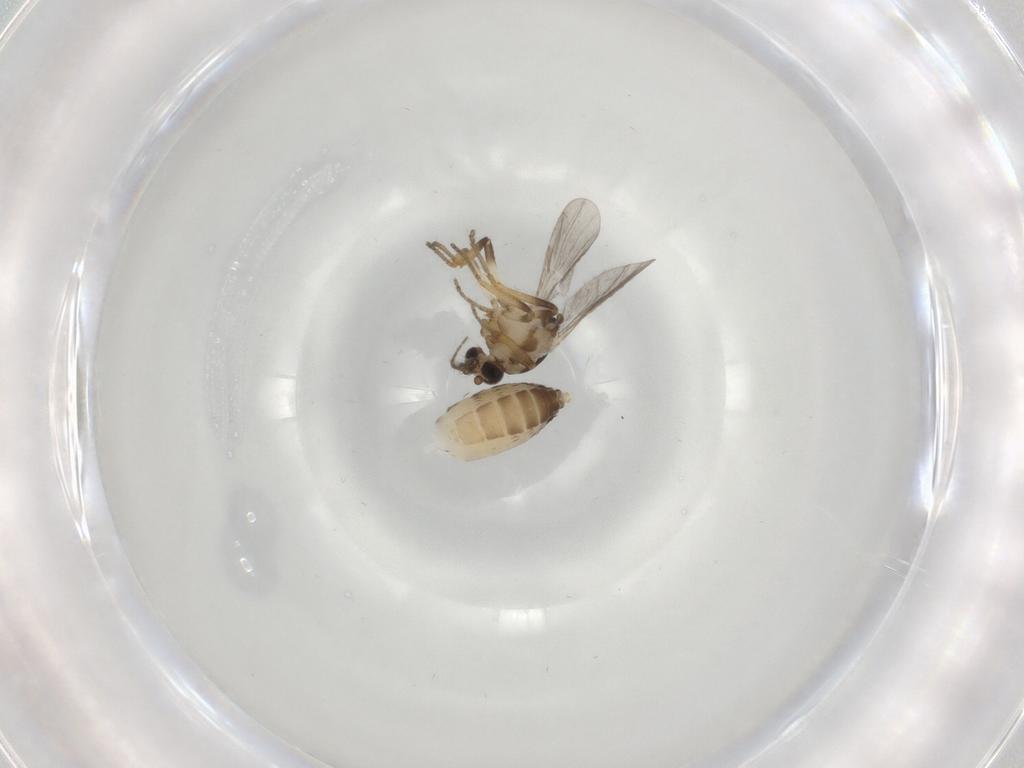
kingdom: Animalia
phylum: Arthropoda
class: Insecta
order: Diptera
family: Ceratopogonidae
